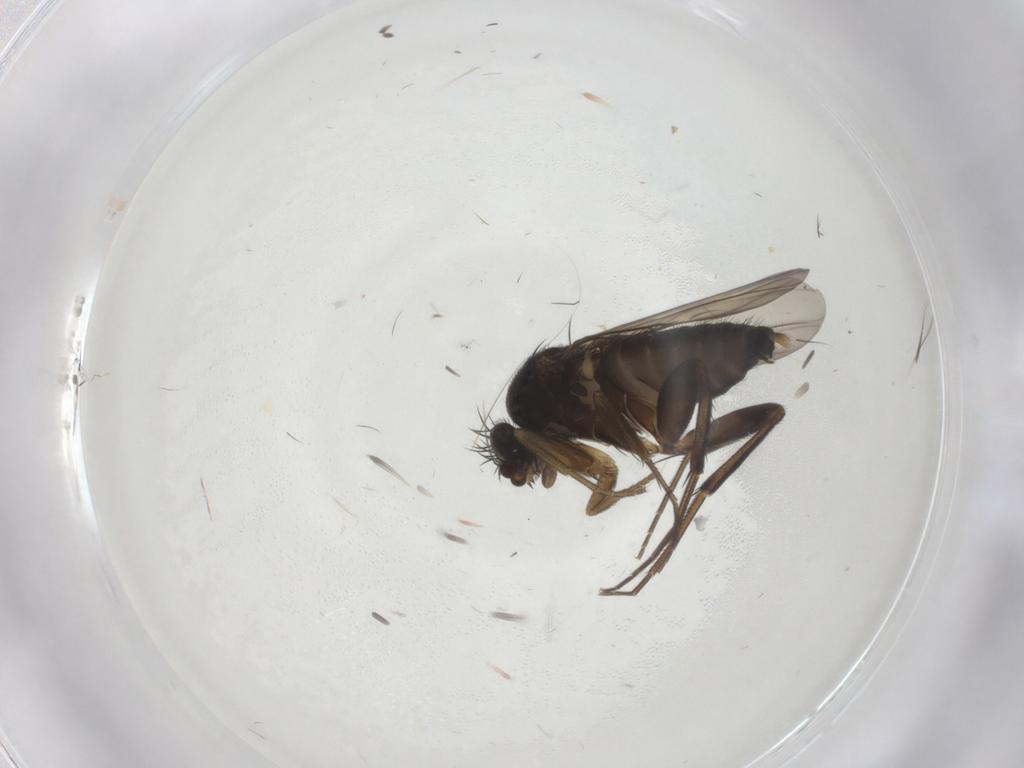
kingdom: Animalia
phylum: Arthropoda
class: Insecta
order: Diptera
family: Phoridae
